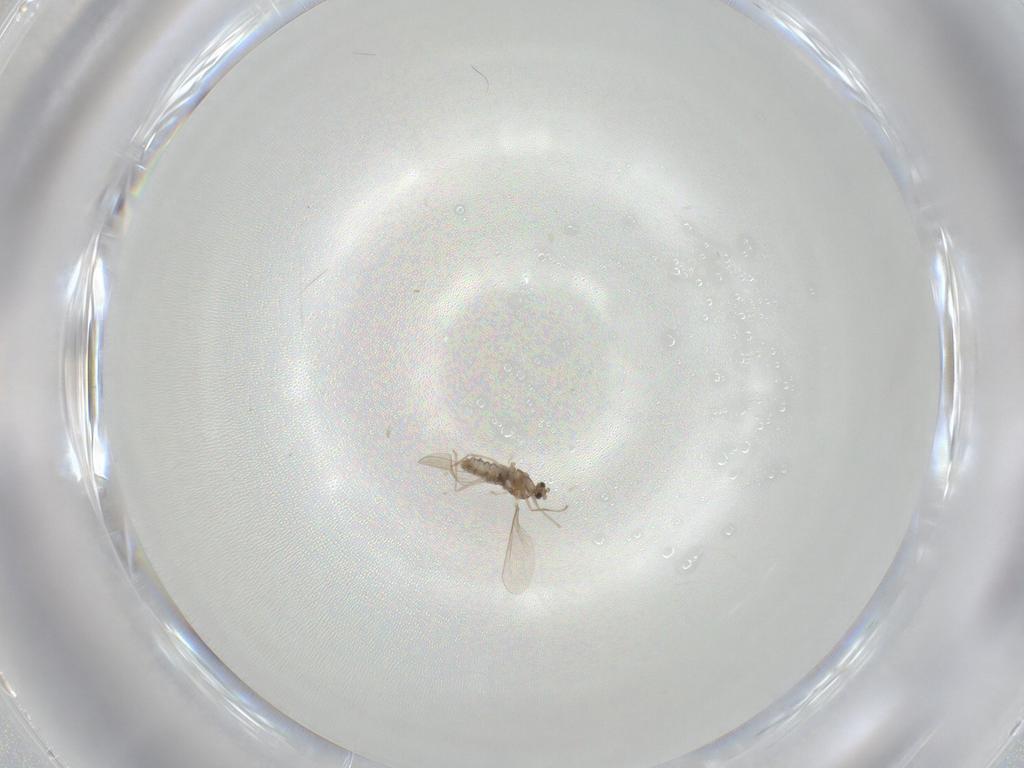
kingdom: Animalia
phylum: Arthropoda
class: Insecta
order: Diptera
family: Cecidomyiidae
